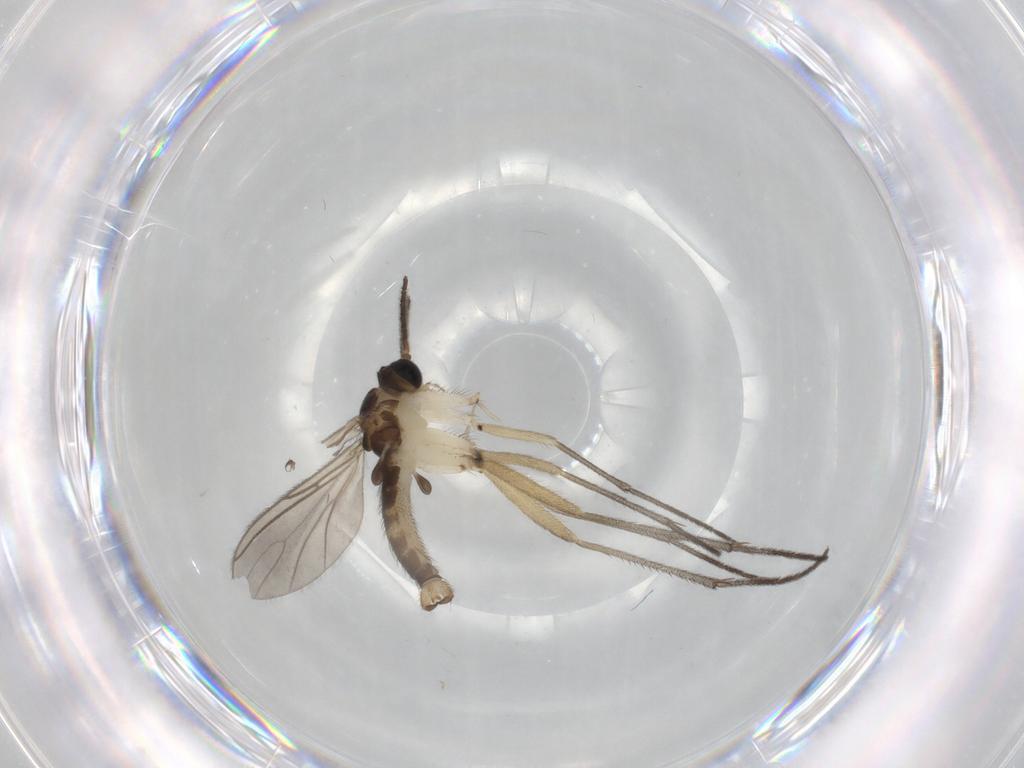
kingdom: Animalia
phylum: Arthropoda
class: Insecta
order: Diptera
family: Sciaridae
